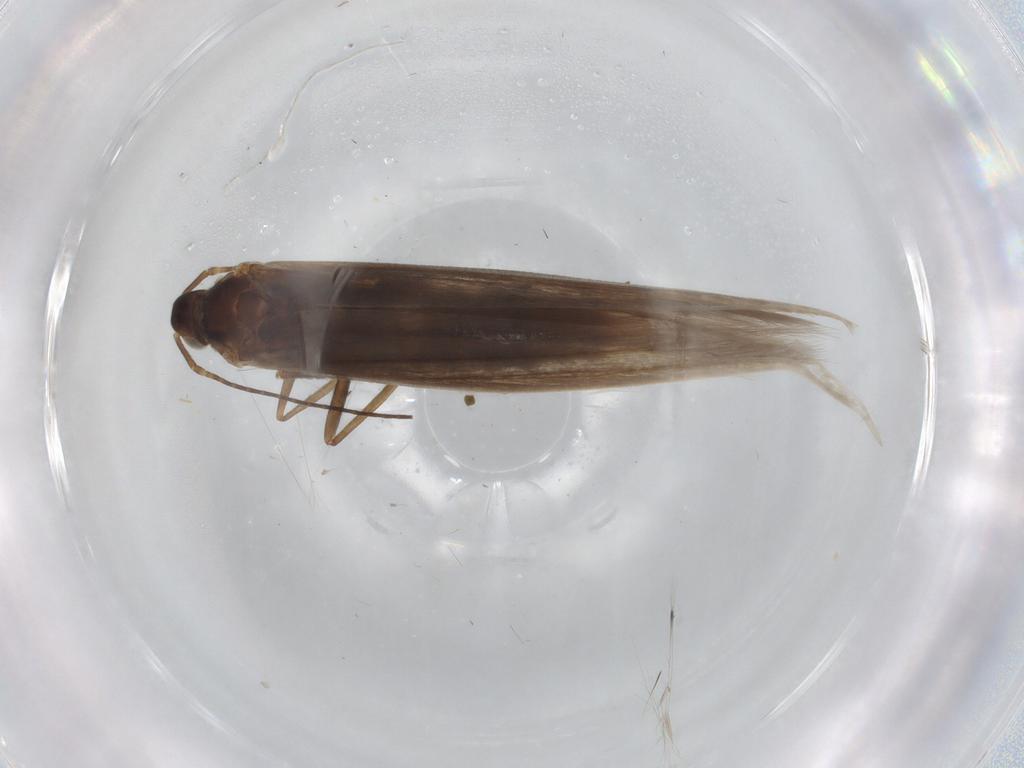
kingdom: Animalia
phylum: Arthropoda
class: Insecta
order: Lepidoptera
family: Coleophoridae
